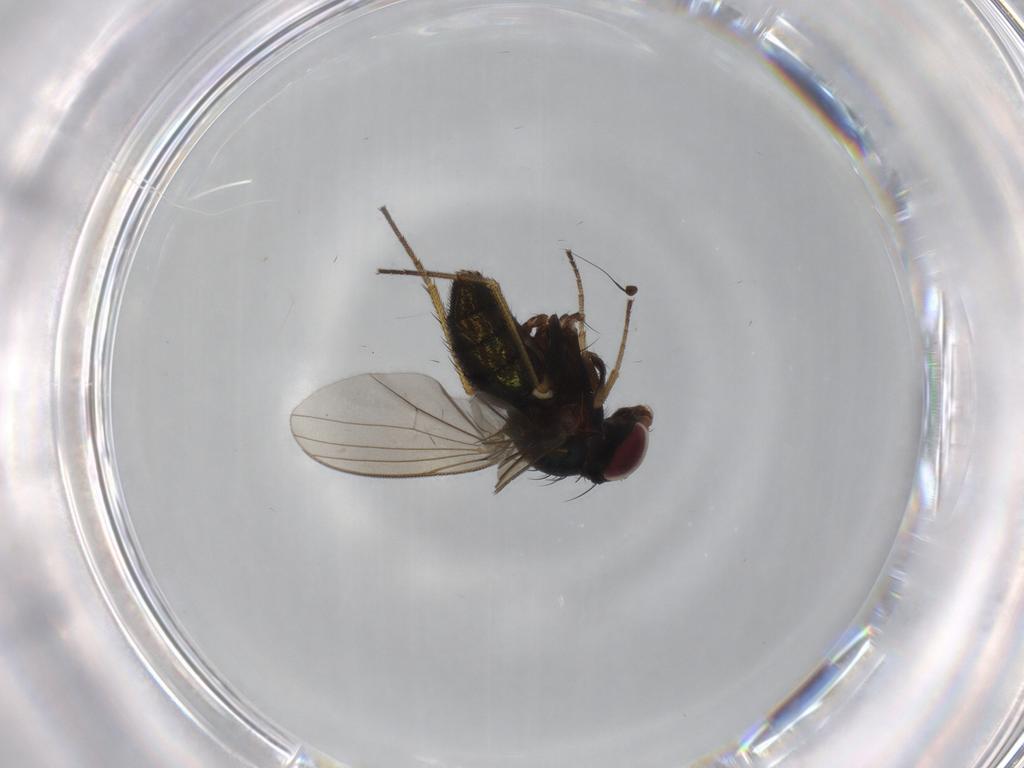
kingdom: Animalia
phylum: Arthropoda
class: Insecta
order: Diptera
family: Dolichopodidae
